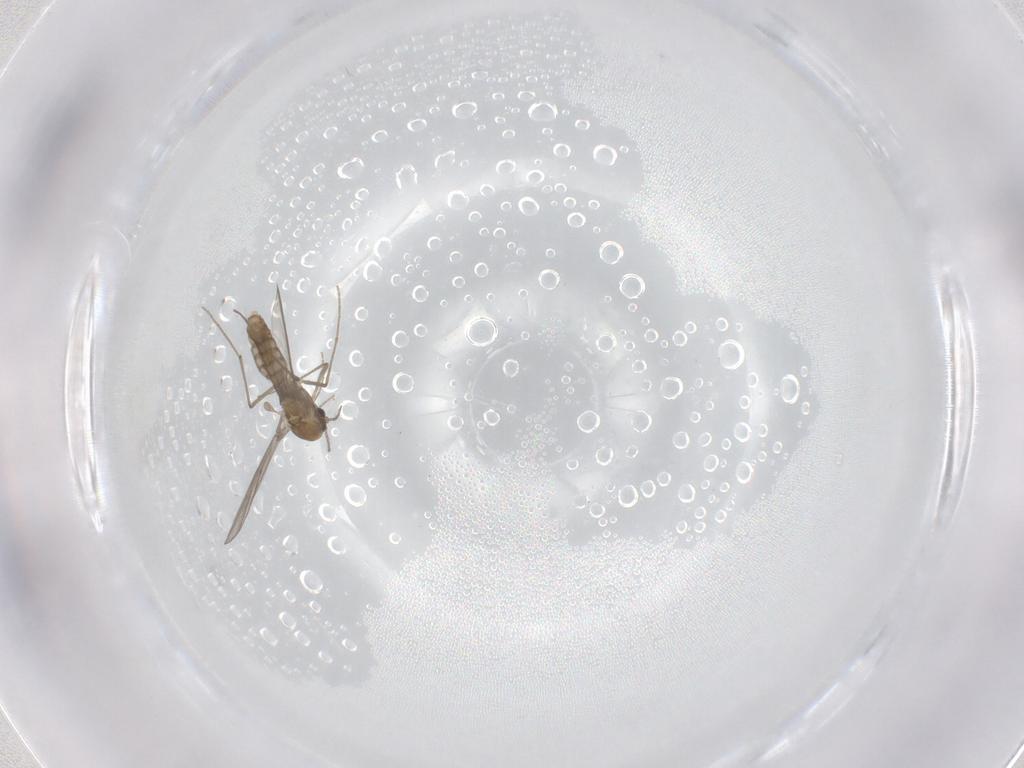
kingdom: Animalia
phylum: Arthropoda
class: Insecta
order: Diptera
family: Chironomidae
